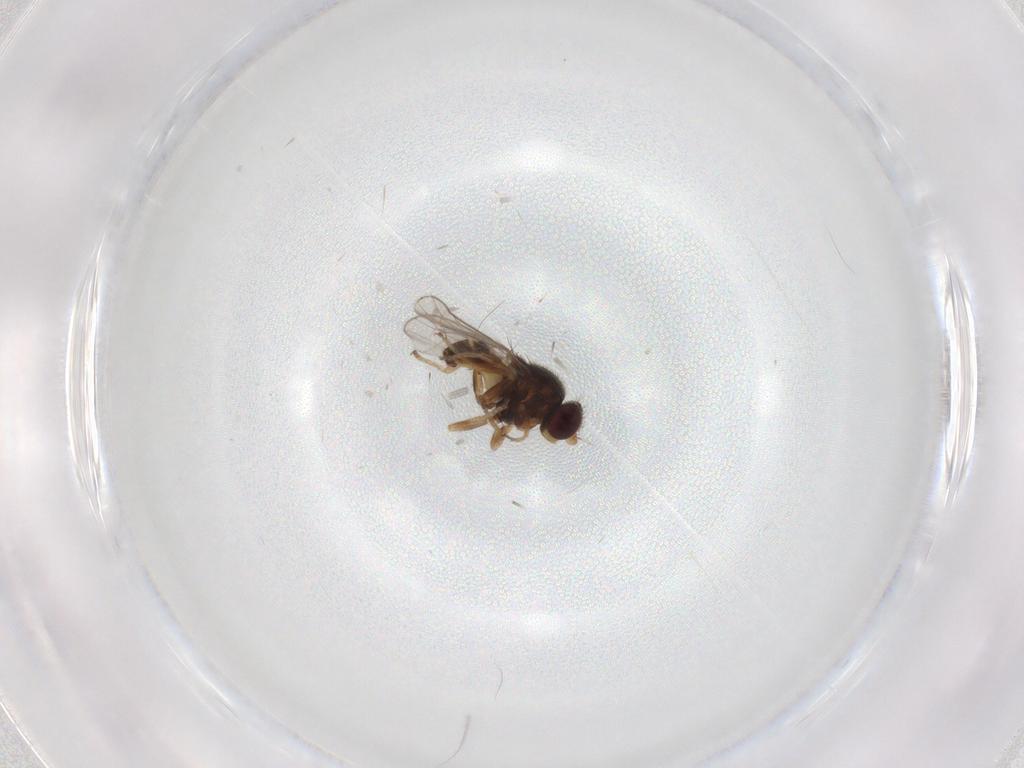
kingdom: Animalia
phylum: Arthropoda
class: Insecta
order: Diptera
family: Chloropidae
